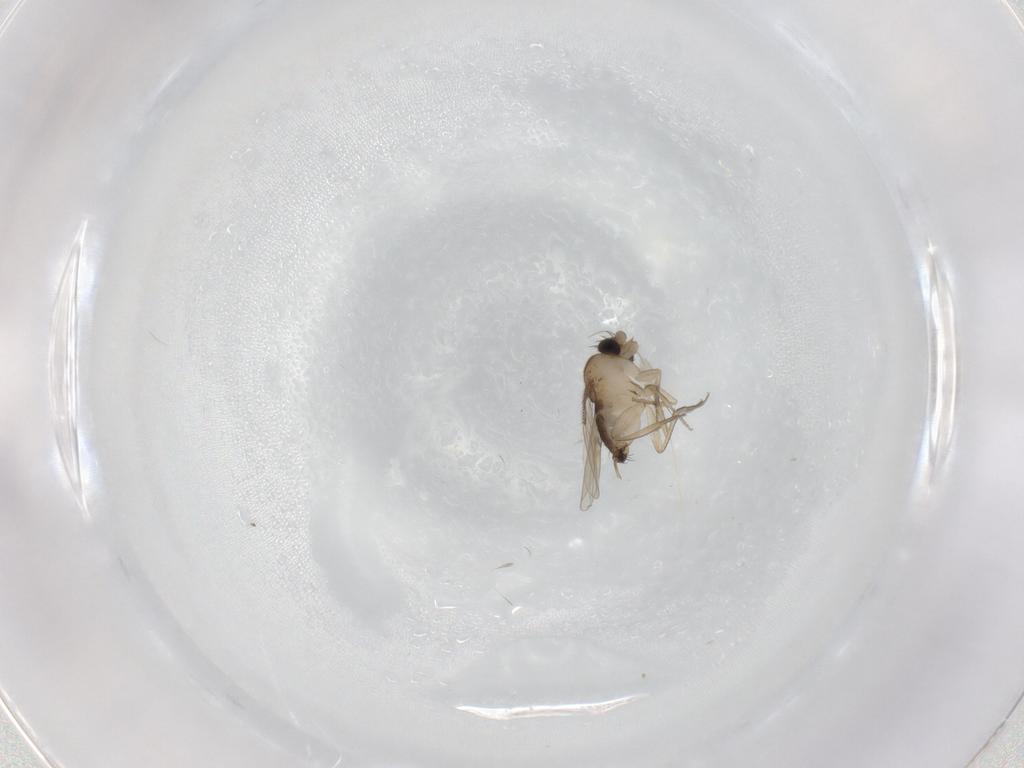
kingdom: Animalia
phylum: Arthropoda
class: Insecta
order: Diptera
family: Phoridae
